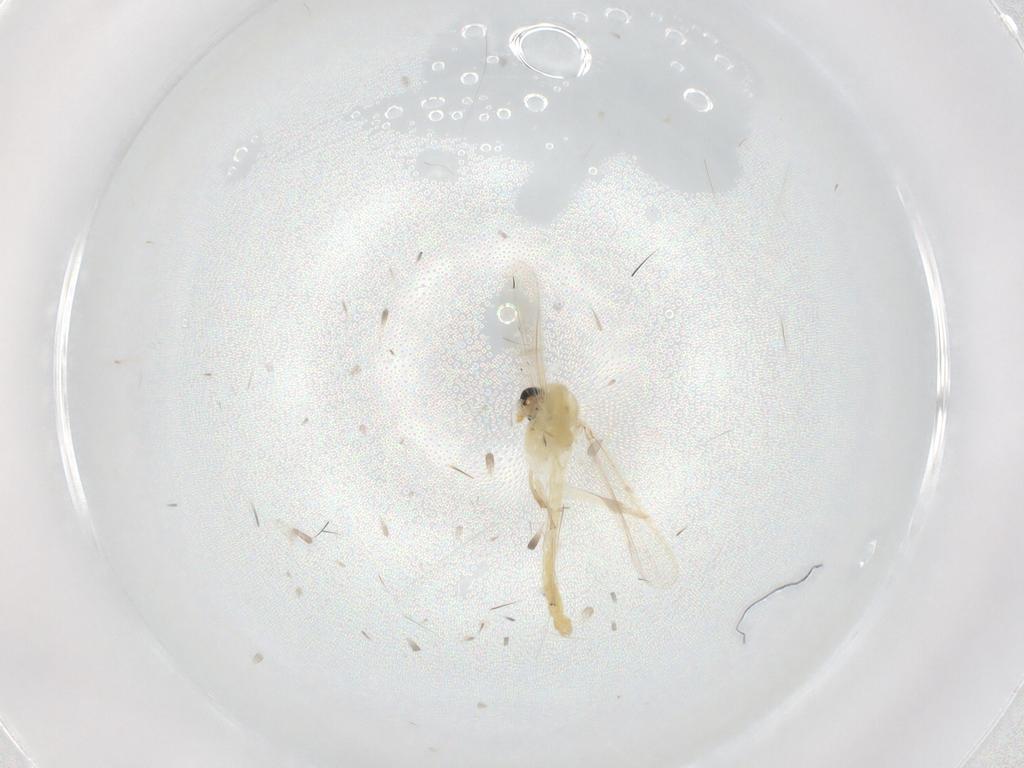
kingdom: Animalia
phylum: Arthropoda
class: Insecta
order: Diptera
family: Chironomidae
